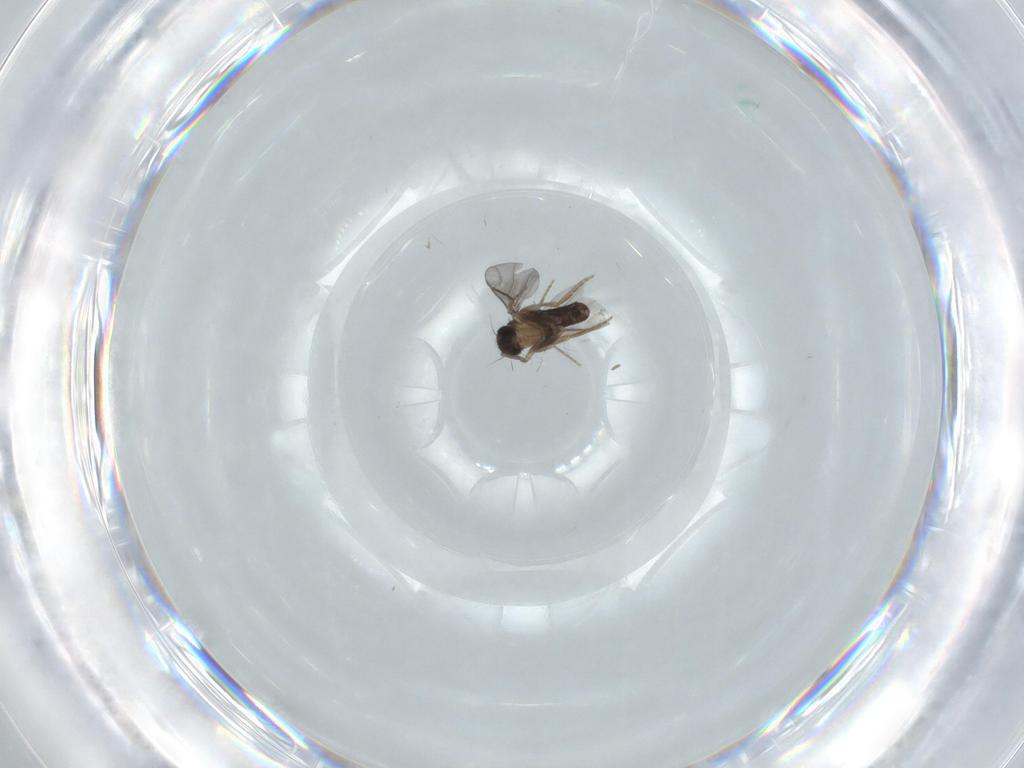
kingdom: Animalia
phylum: Arthropoda
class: Insecta
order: Diptera
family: Cecidomyiidae
